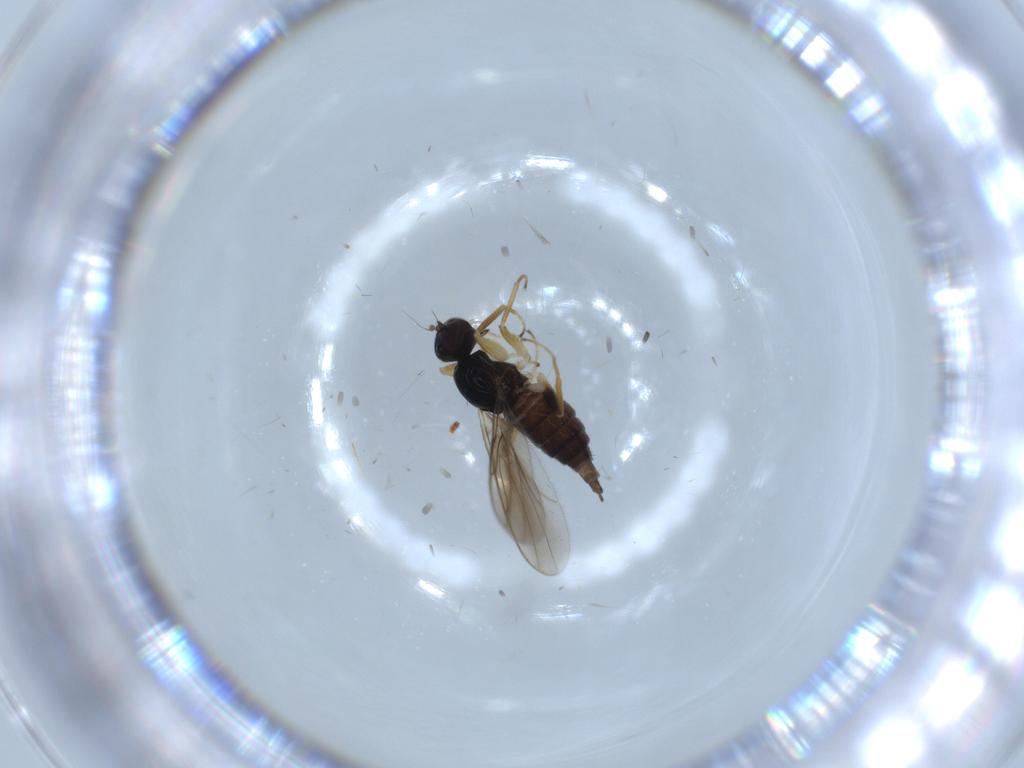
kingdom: Animalia
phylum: Arthropoda
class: Insecta
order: Diptera
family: Hybotidae
